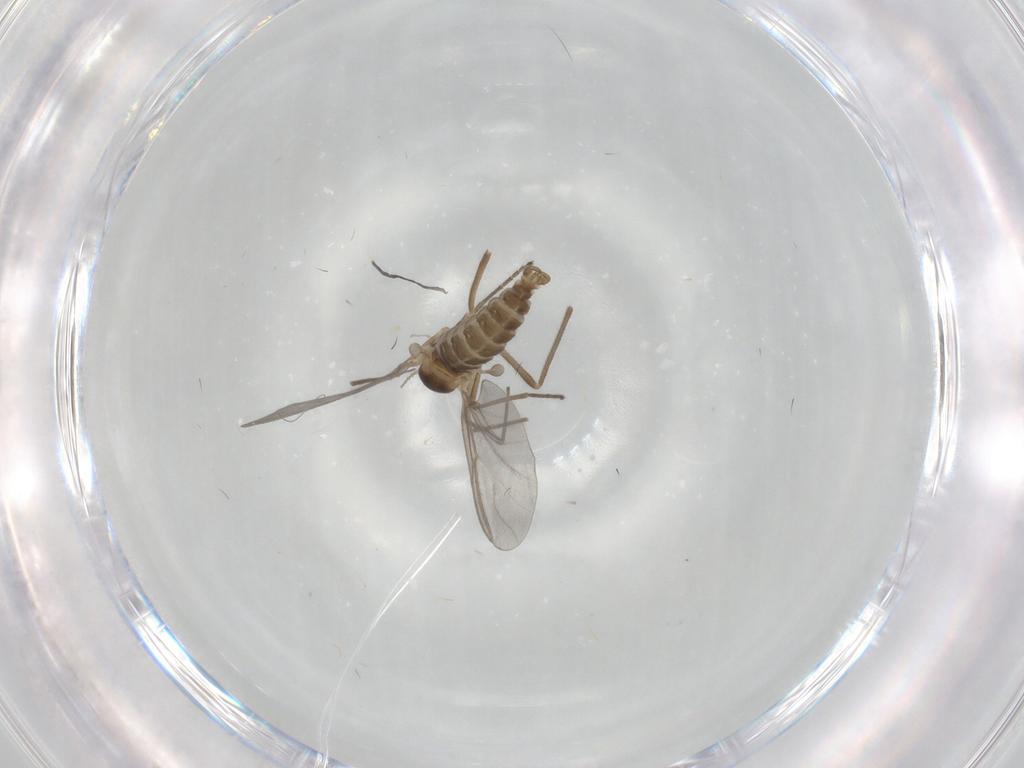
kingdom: Animalia
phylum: Arthropoda
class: Insecta
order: Diptera
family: Cecidomyiidae
